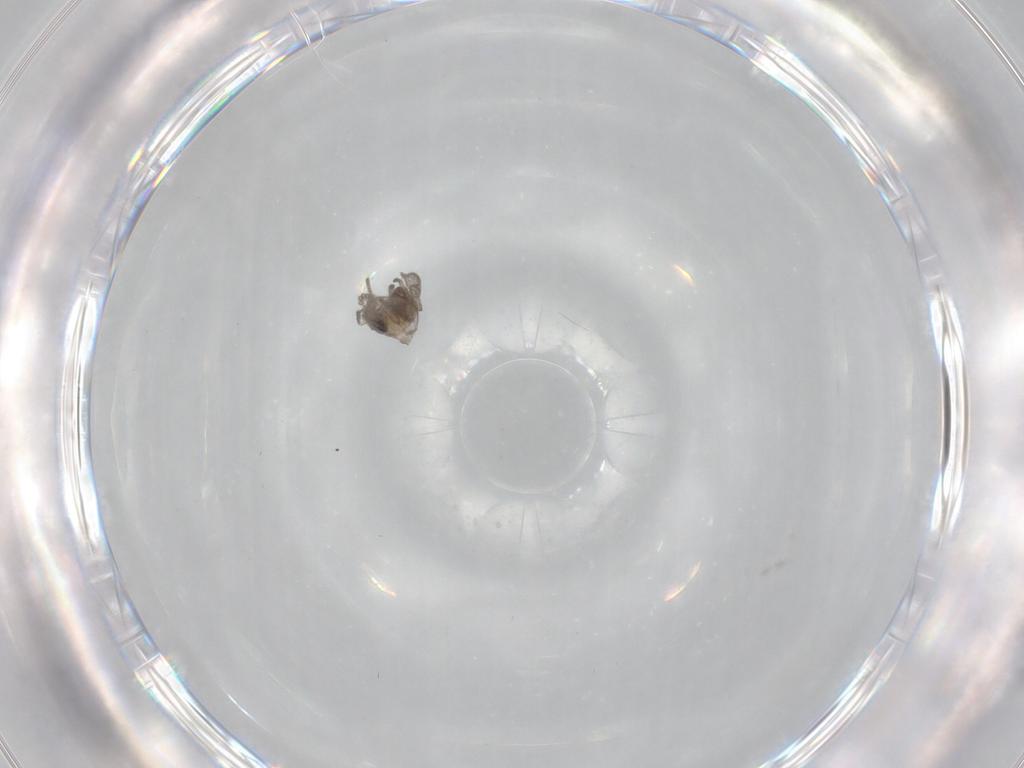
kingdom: Animalia
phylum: Arthropoda
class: Insecta
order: Diptera
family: Psychodidae
